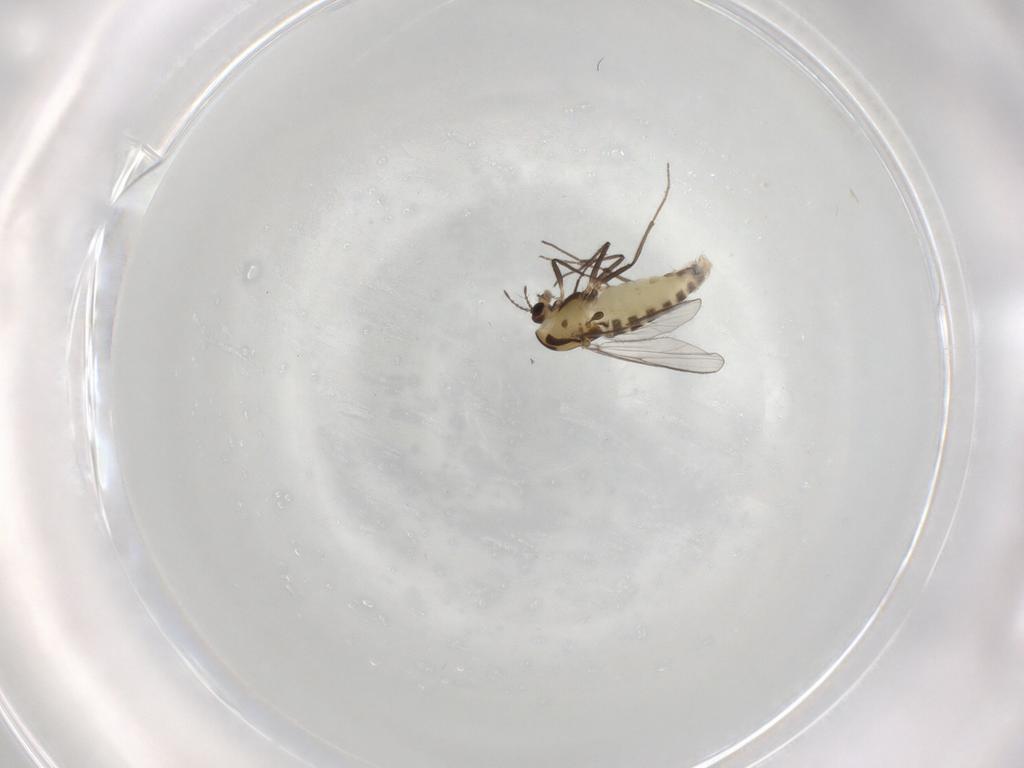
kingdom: Animalia
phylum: Arthropoda
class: Insecta
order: Diptera
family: Chironomidae
